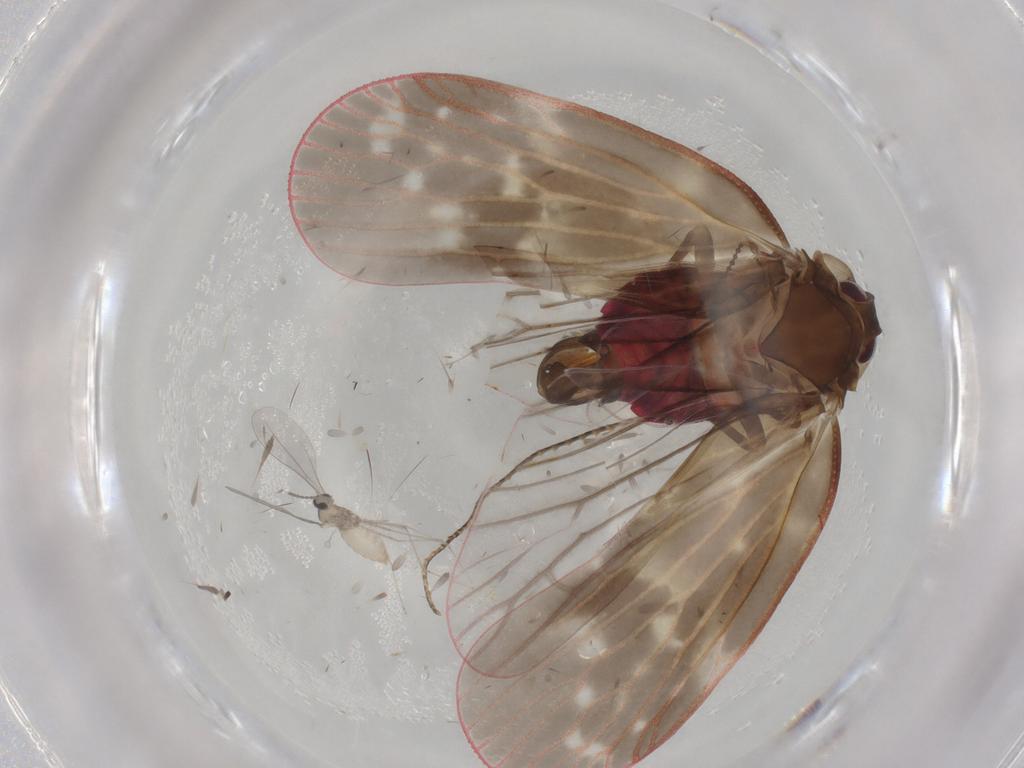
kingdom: Animalia
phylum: Arthropoda
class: Insecta
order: Hemiptera
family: Achilidae
